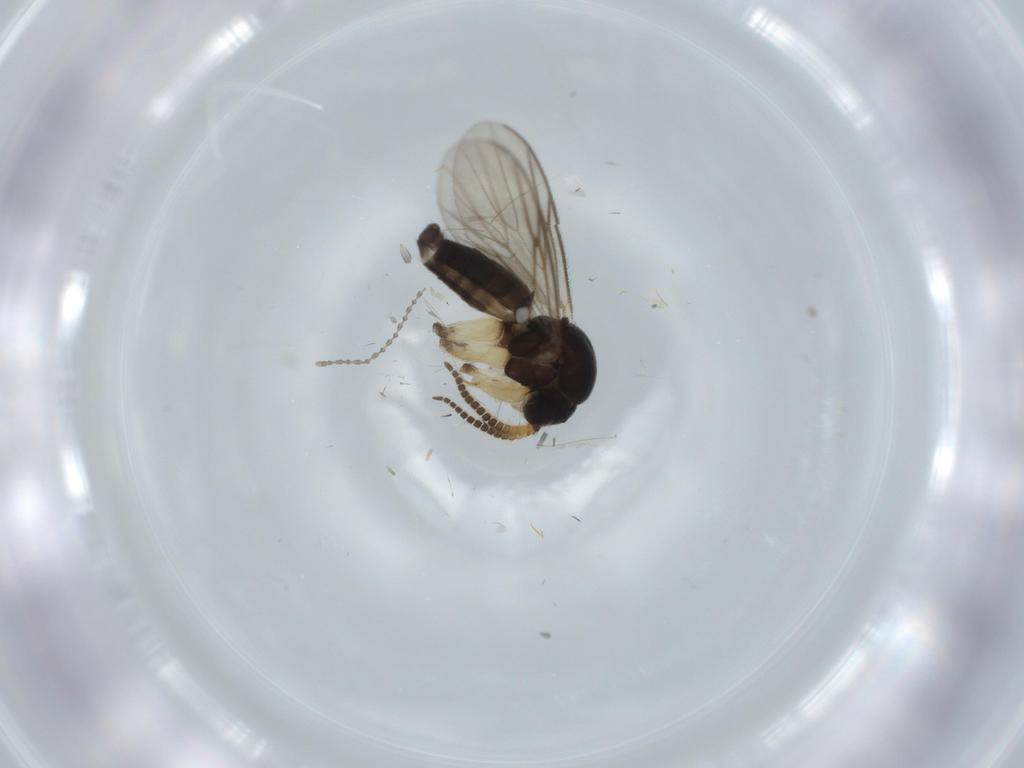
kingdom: Animalia
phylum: Arthropoda
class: Insecta
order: Diptera
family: Mycetophilidae
